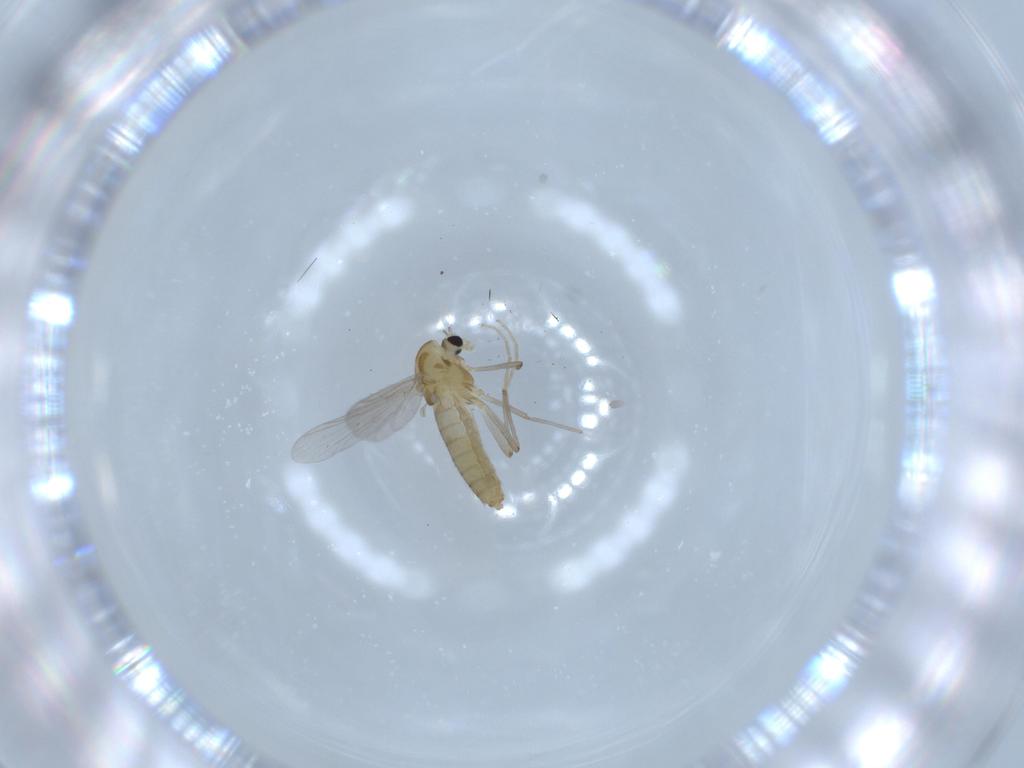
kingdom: Animalia
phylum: Arthropoda
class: Insecta
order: Diptera
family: Chironomidae
